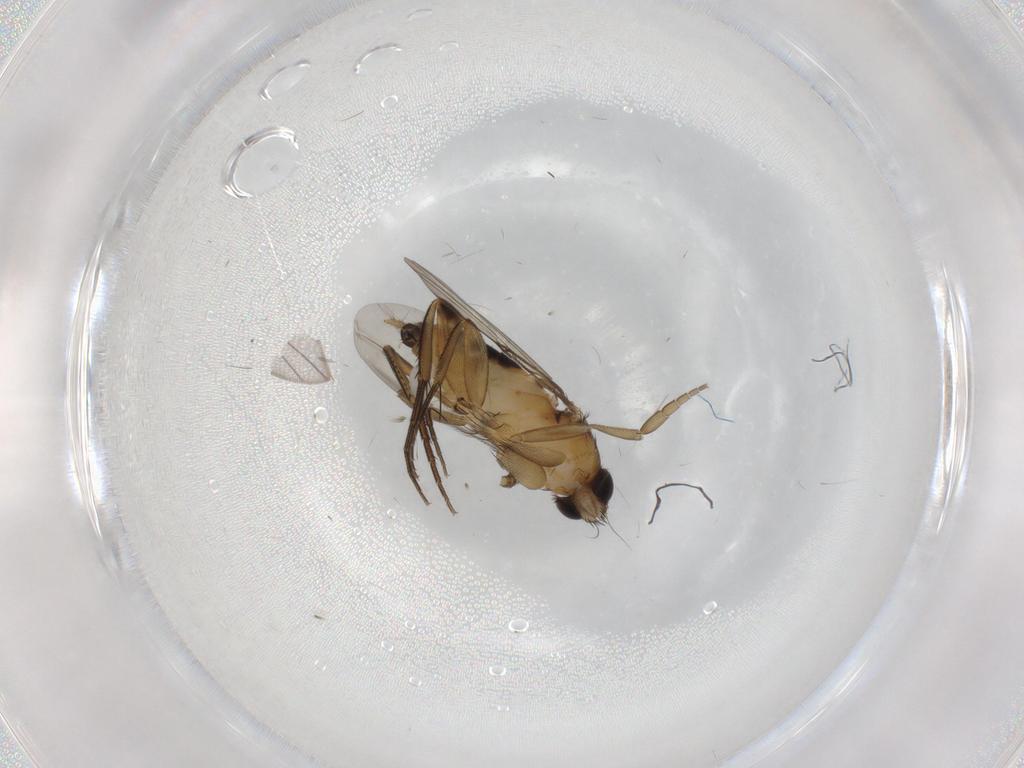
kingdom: Animalia
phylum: Arthropoda
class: Insecta
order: Diptera
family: Phoridae
